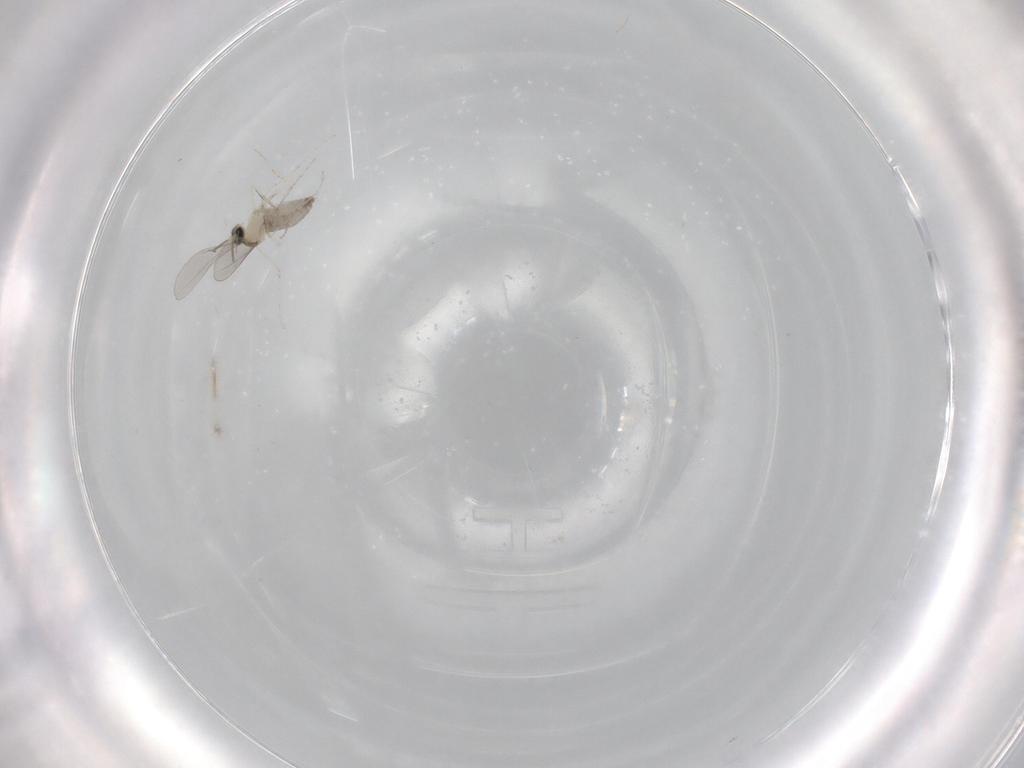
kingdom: Animalia
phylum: Arthropoda
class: Insecta
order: Diptera
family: Cecidomyiidae
